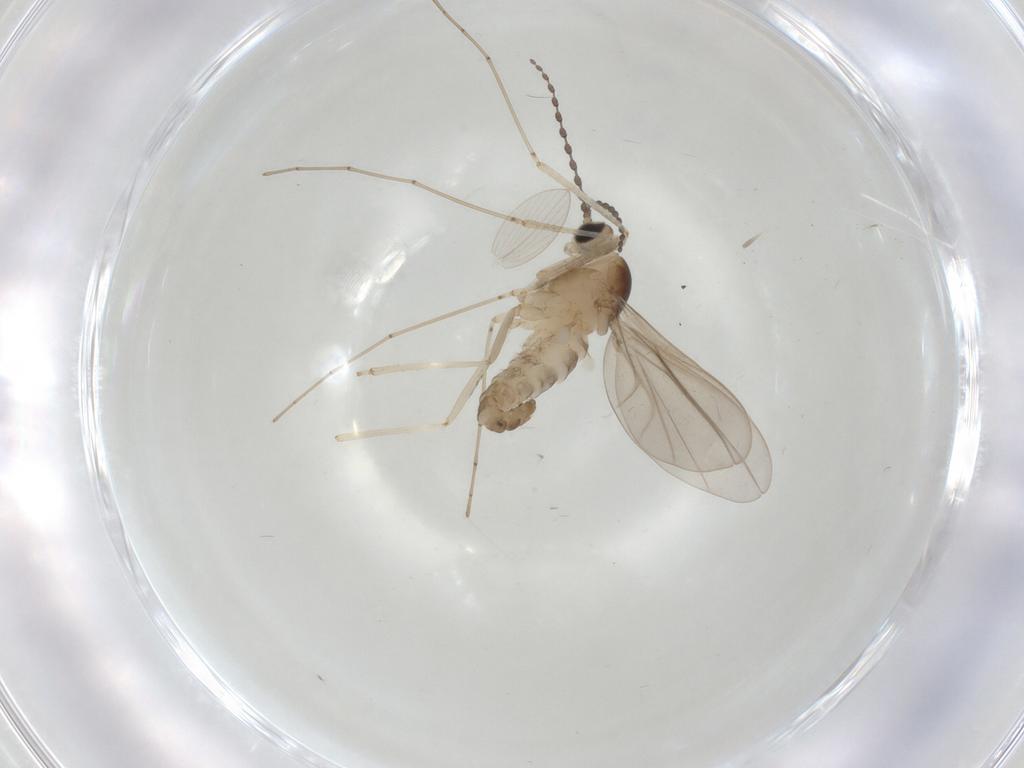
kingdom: Animalia
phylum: Arthropoda
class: Insecta
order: Diptera
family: Cecidomyiidae
